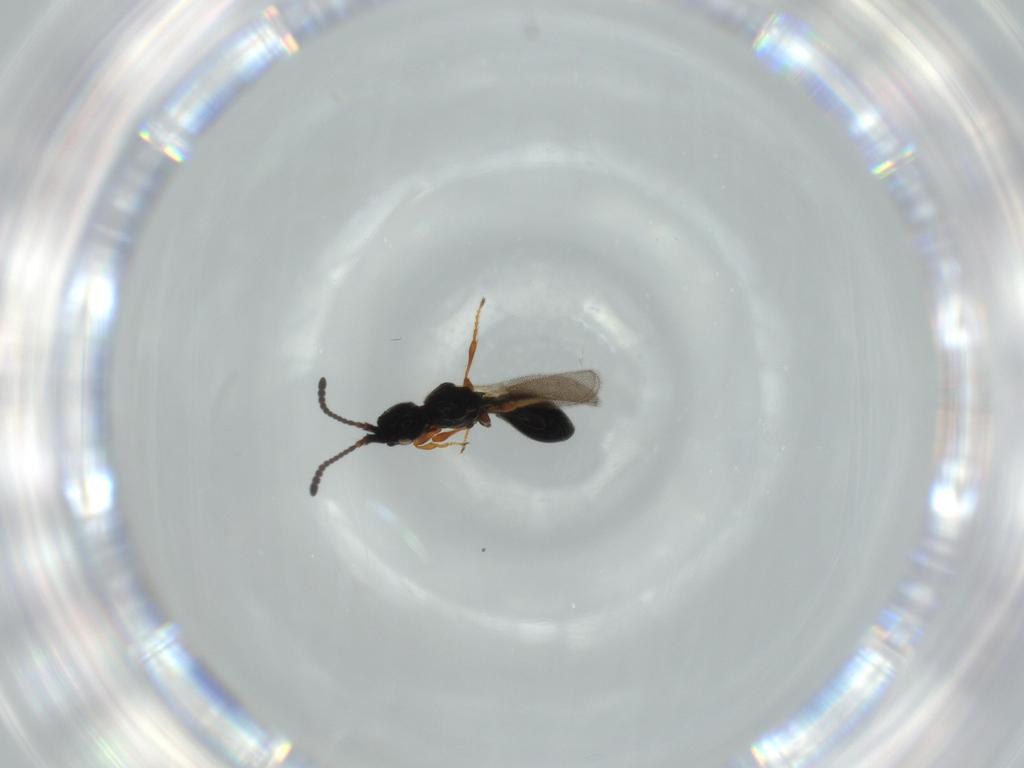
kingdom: Animalia
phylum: Arthropoda
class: Insecta
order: Hymenoptera
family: Diapriidae
